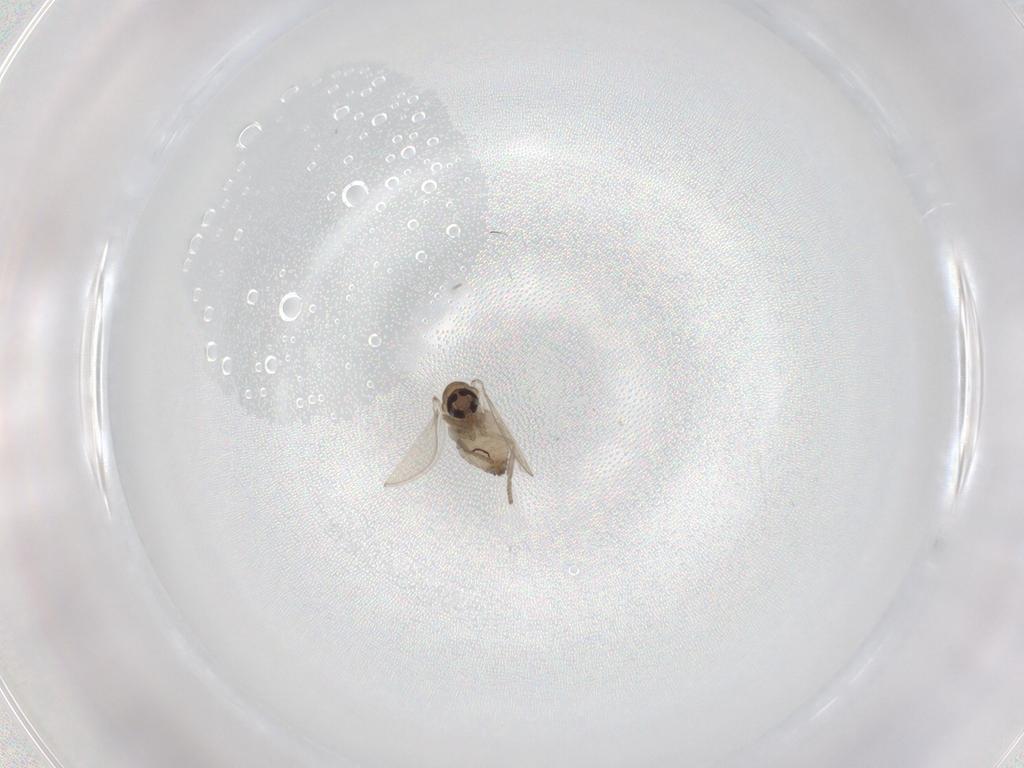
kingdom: Animalia
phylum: Arthropoda
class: Insecta
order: Diptera
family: Psychodidae
